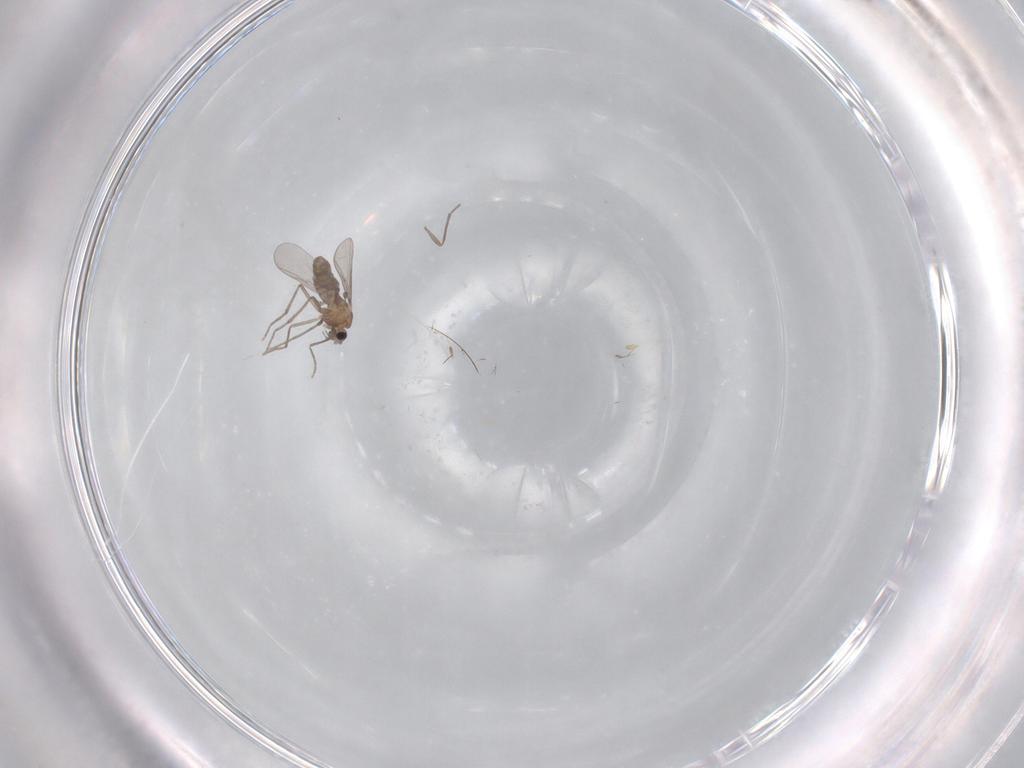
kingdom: Animalia
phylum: Arthropoda
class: Insecta
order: Diptera
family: Chironomidae
